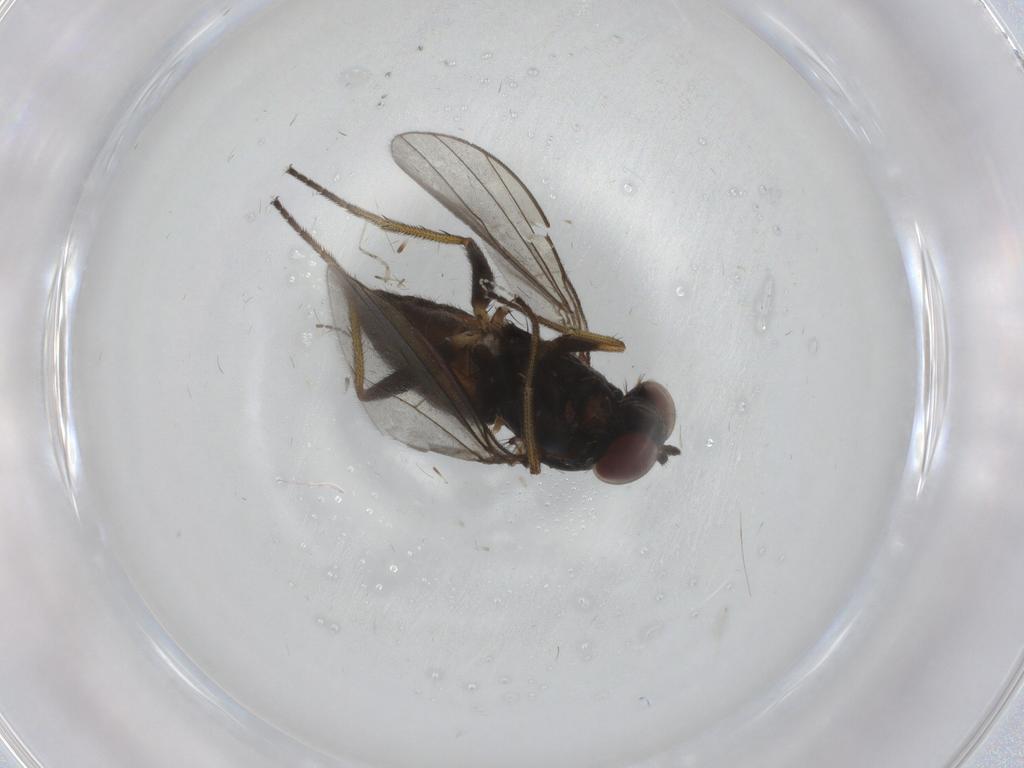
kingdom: Animalia
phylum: Arthropoda
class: Insecta
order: Diptera
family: Dolichopodidae
